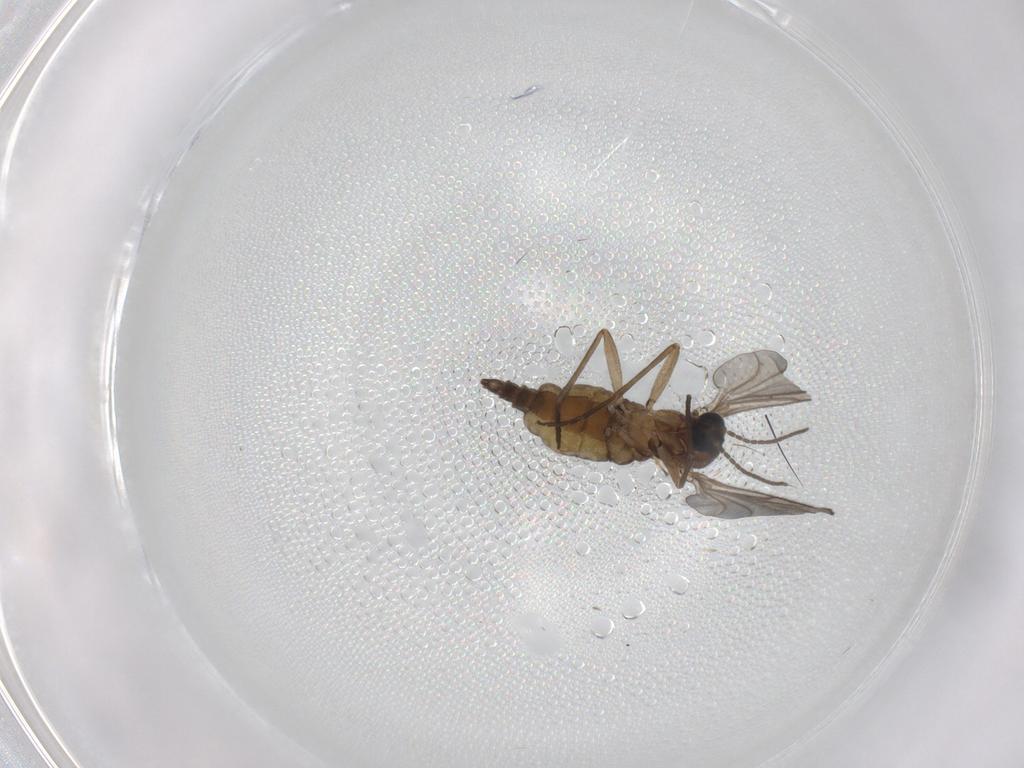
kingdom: Animalia
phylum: Arthropoda
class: Insecta
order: Diptera
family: Sciaridae
